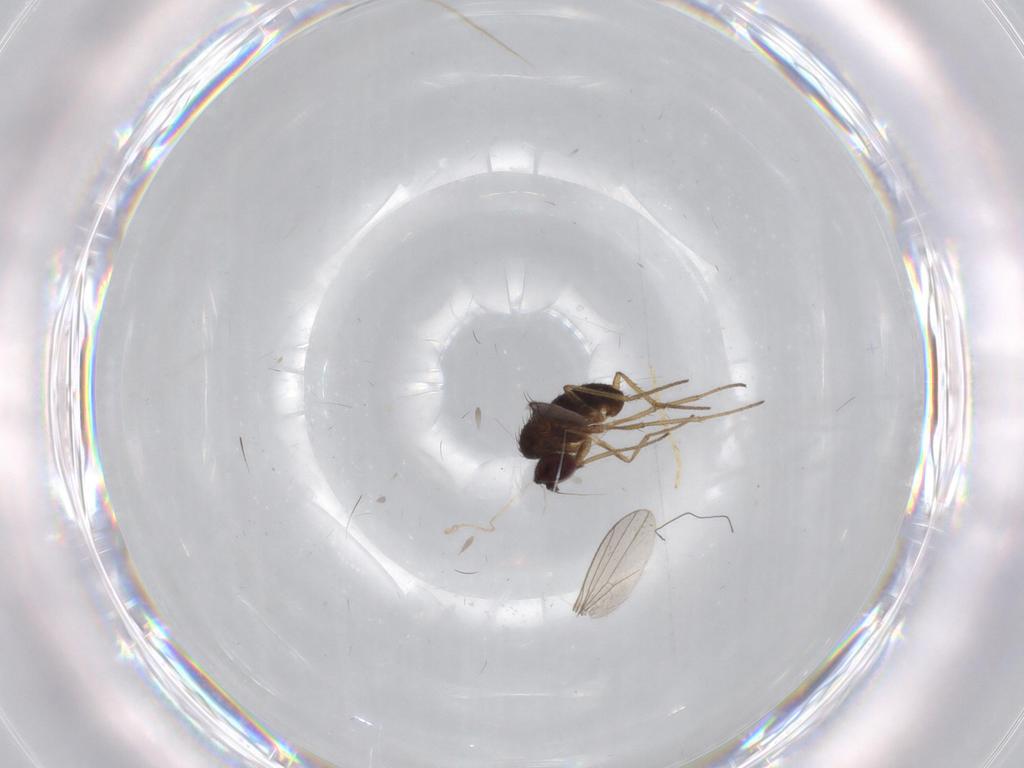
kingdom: Animalia
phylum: Arthropoda
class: Insecta
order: Diptera
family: Dolichopodidae
